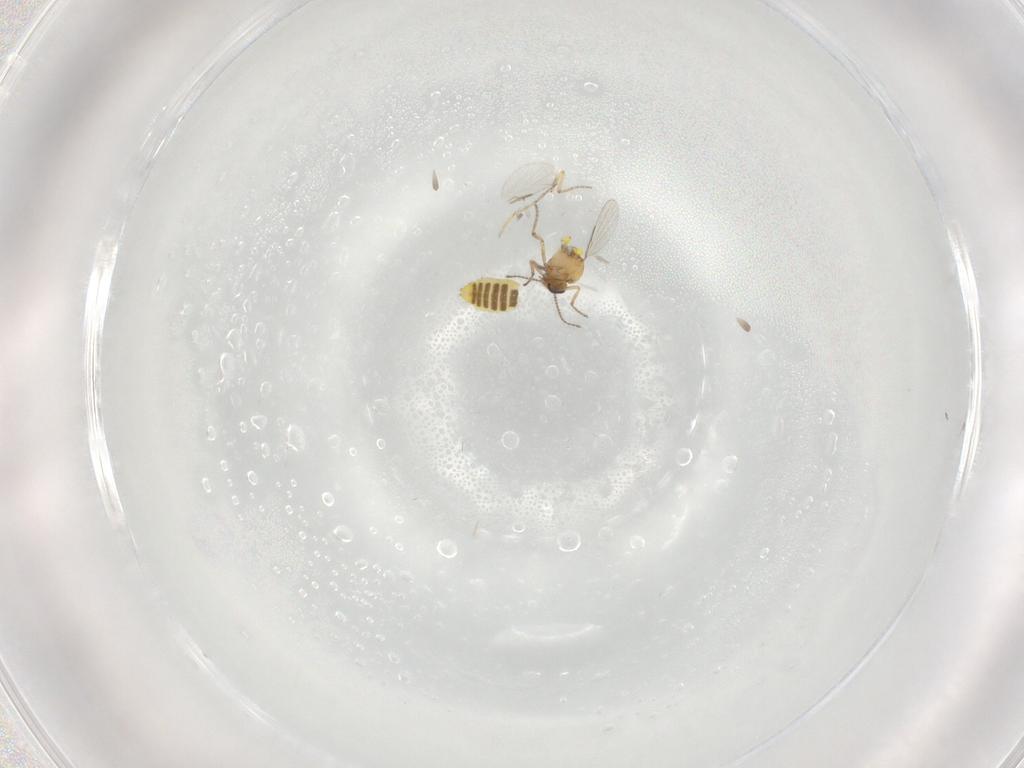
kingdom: Animalia
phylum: Arthropoda
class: Insecta
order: Diptera
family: Ceratopogonidae
